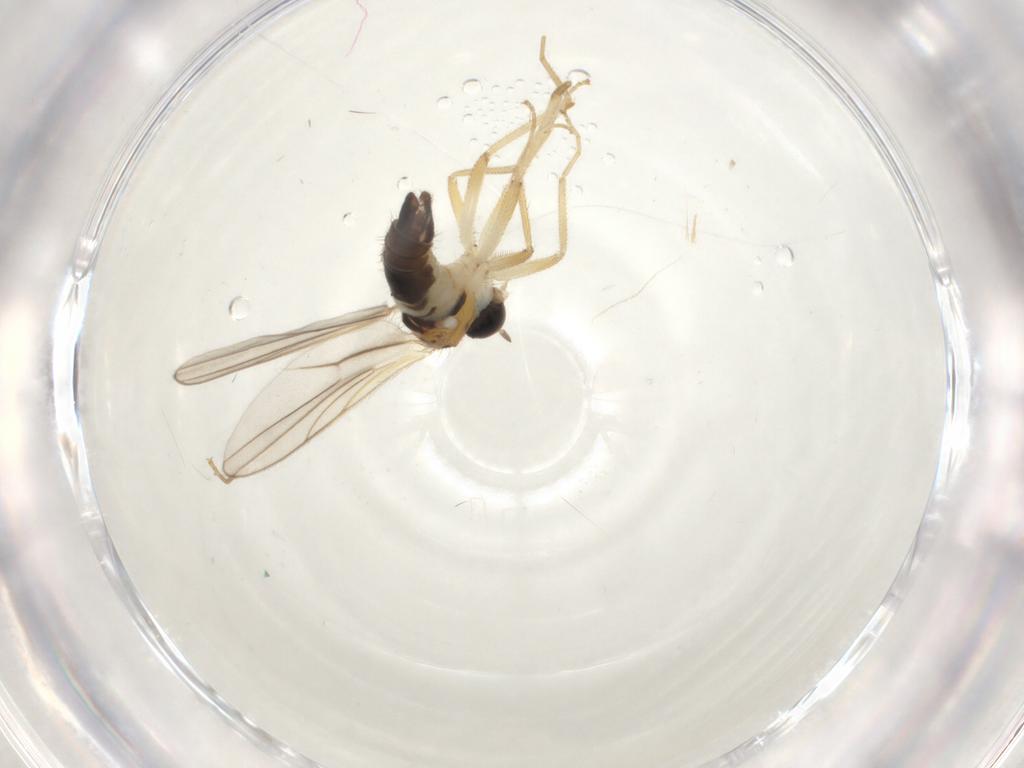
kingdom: Animalia
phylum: Arthropoda
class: Insecta
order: Diptera
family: Hybotidae
